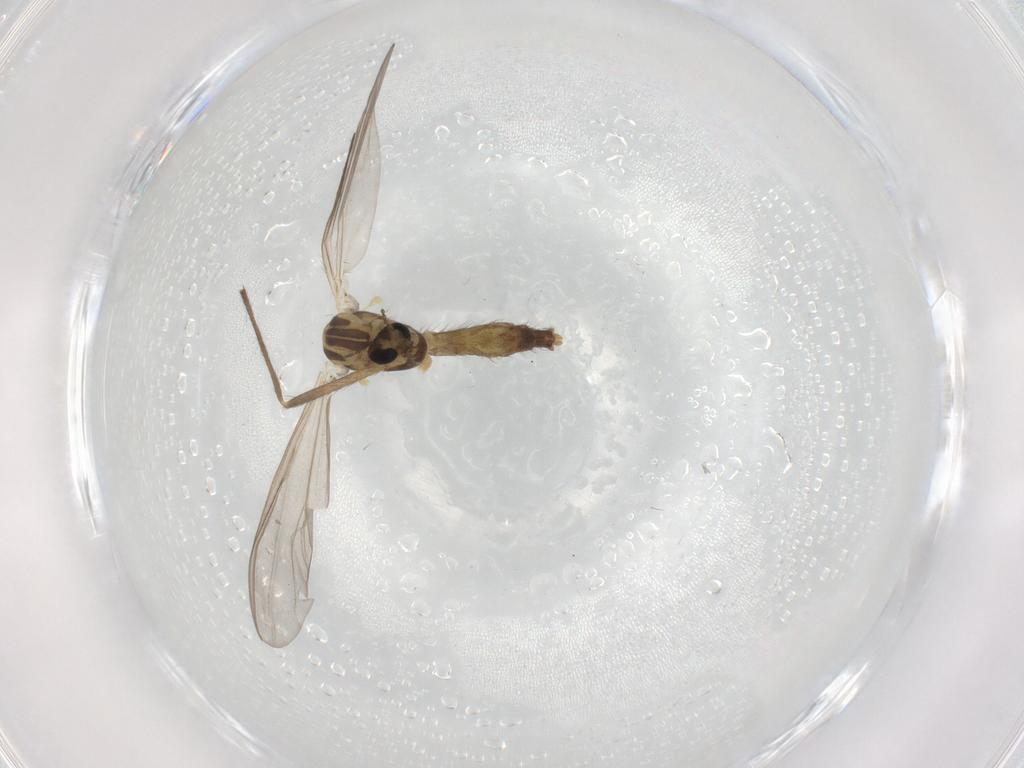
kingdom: Animalia
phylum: Arthropoda
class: Insecta
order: Diptera
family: Chironomidae
